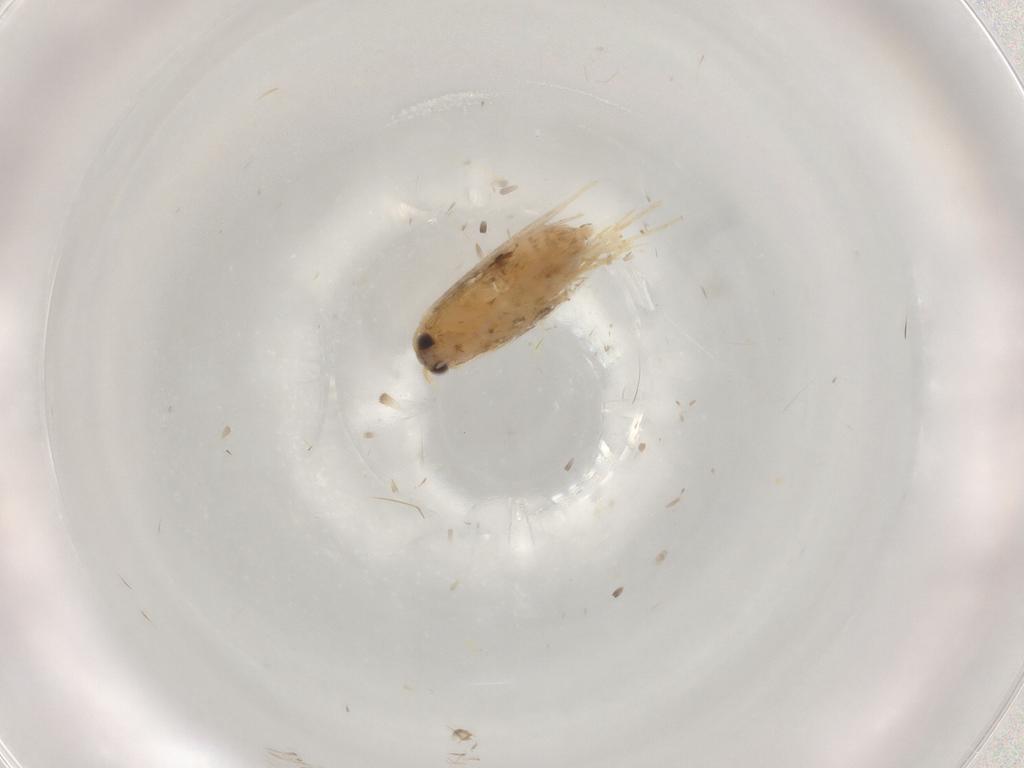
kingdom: Animalia
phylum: Arthropoda
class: Insecta
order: Lepidoptera
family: Nepticulidae
